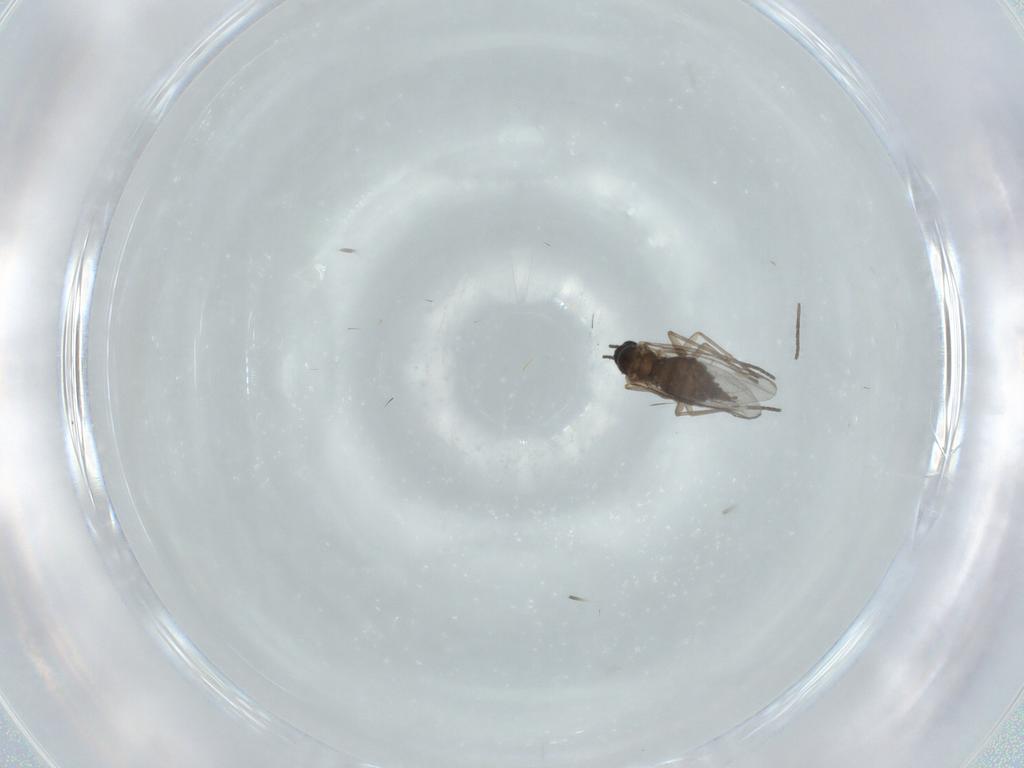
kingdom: Animalia
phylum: Arthropoda
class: Insecta
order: Diptera
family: Sciaridae
